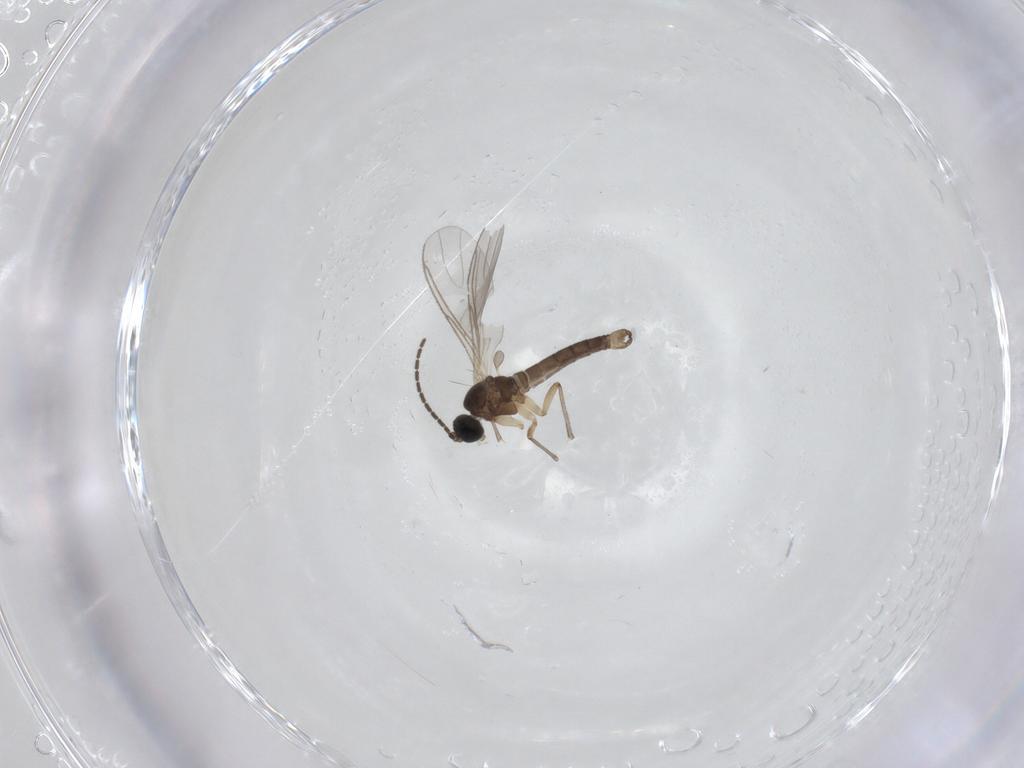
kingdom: Animalia
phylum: Arthropoda
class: Insecta
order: Diptera
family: Sciaridae
